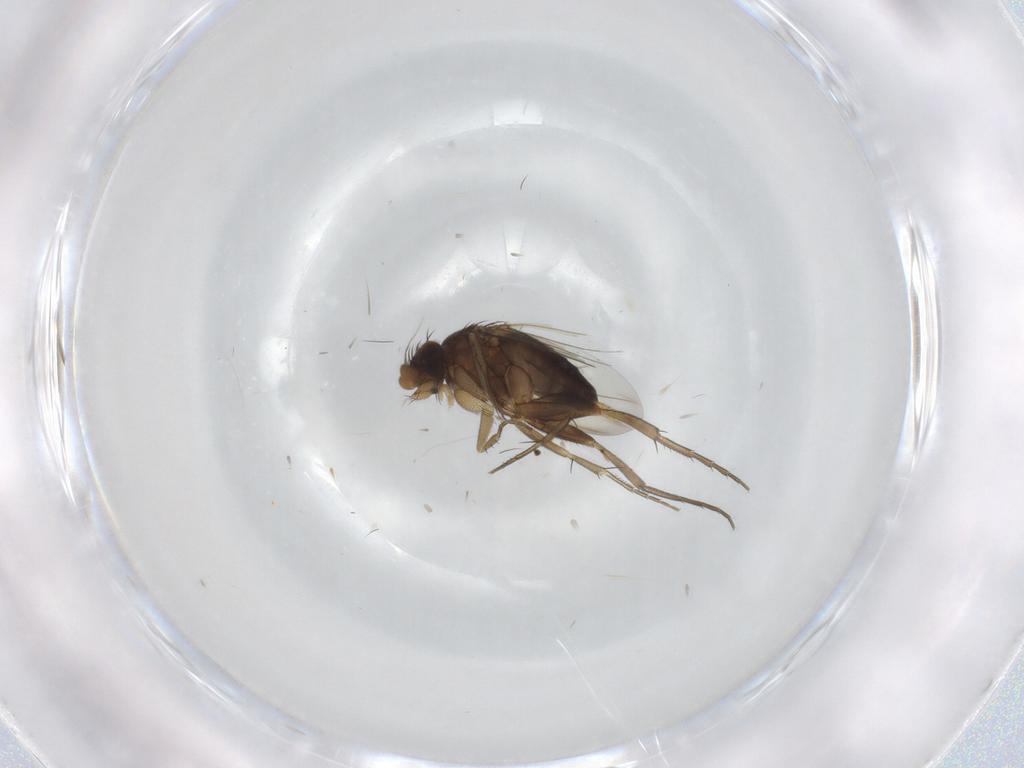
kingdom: Animalia
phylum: Arthropoda
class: Insecta
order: Diptera
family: Phoridae
